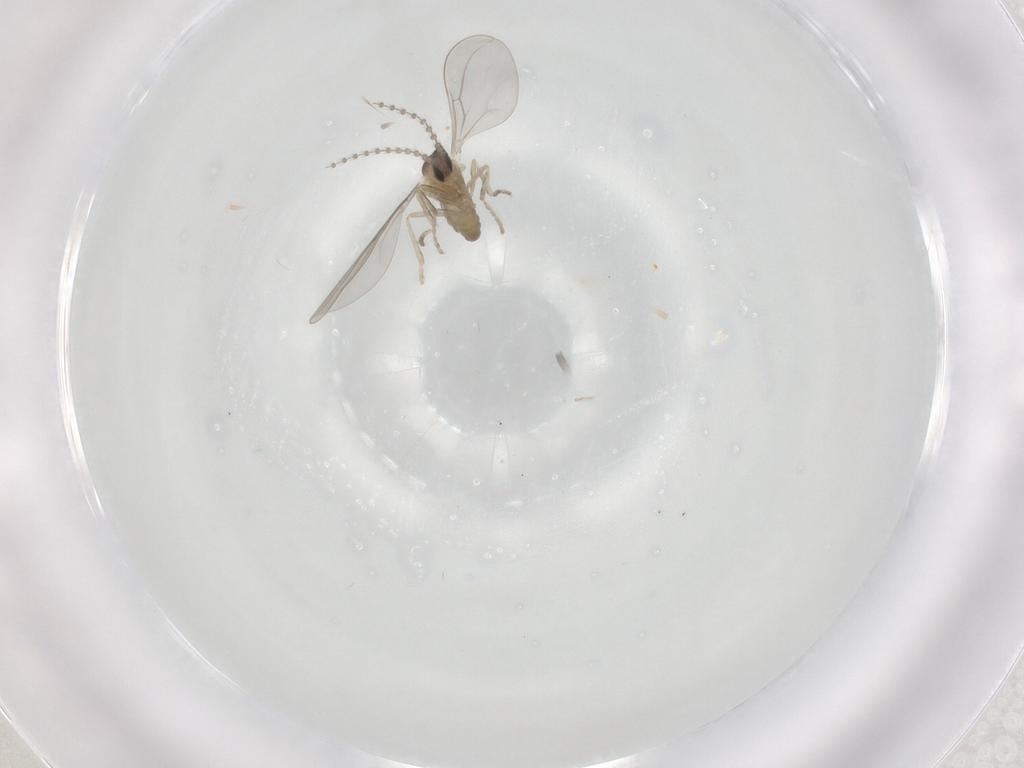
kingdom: Animalia
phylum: Arthropoda
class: Insecta
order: Diptera
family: Cecidomyiidae
